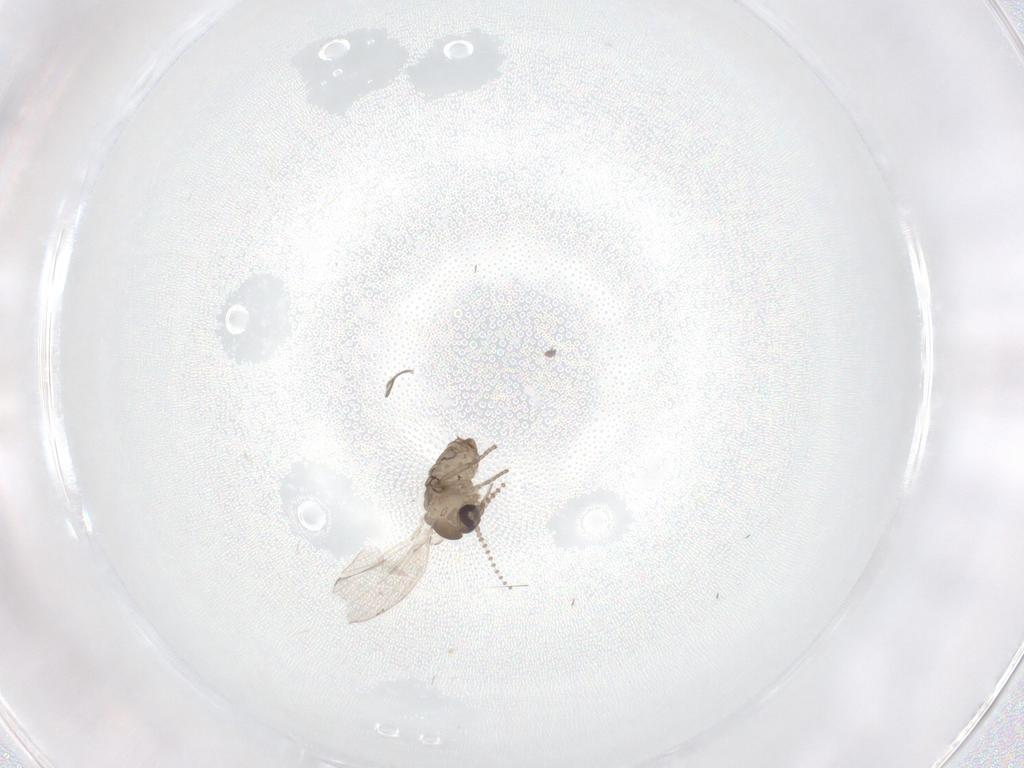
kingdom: Animalia
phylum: Arthropoda
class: Insecta
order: Diptera
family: Psychodidae
